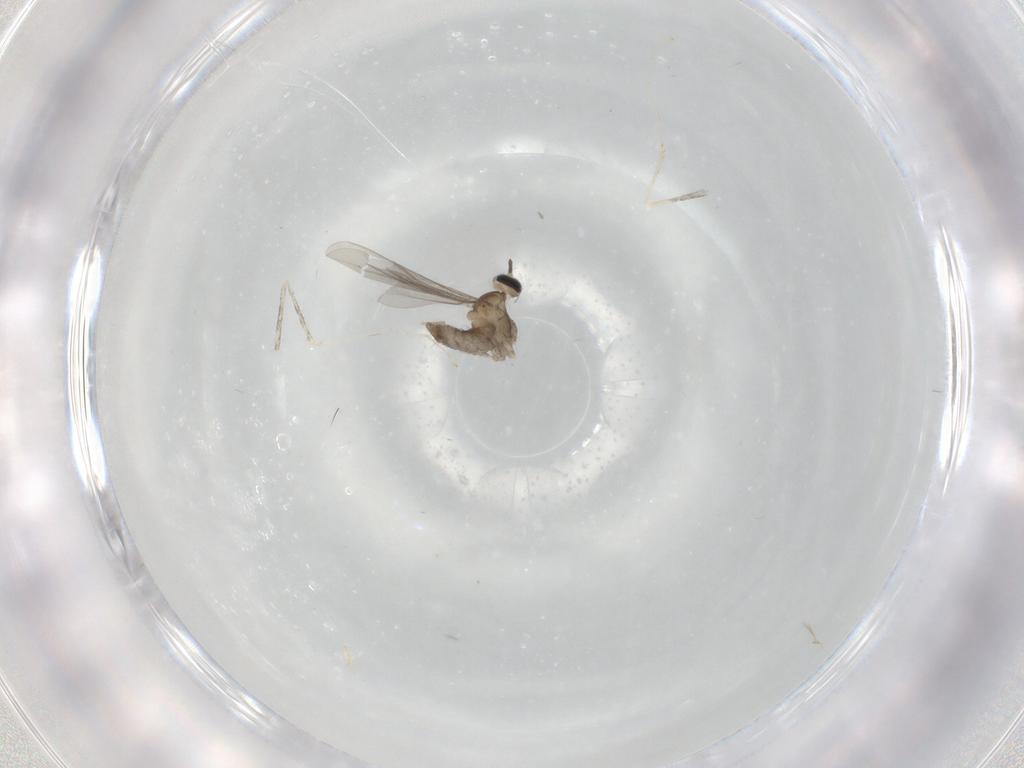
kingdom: Animalia
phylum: Arthropoda
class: Insecta
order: Diptera
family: Cecidomyiidae
